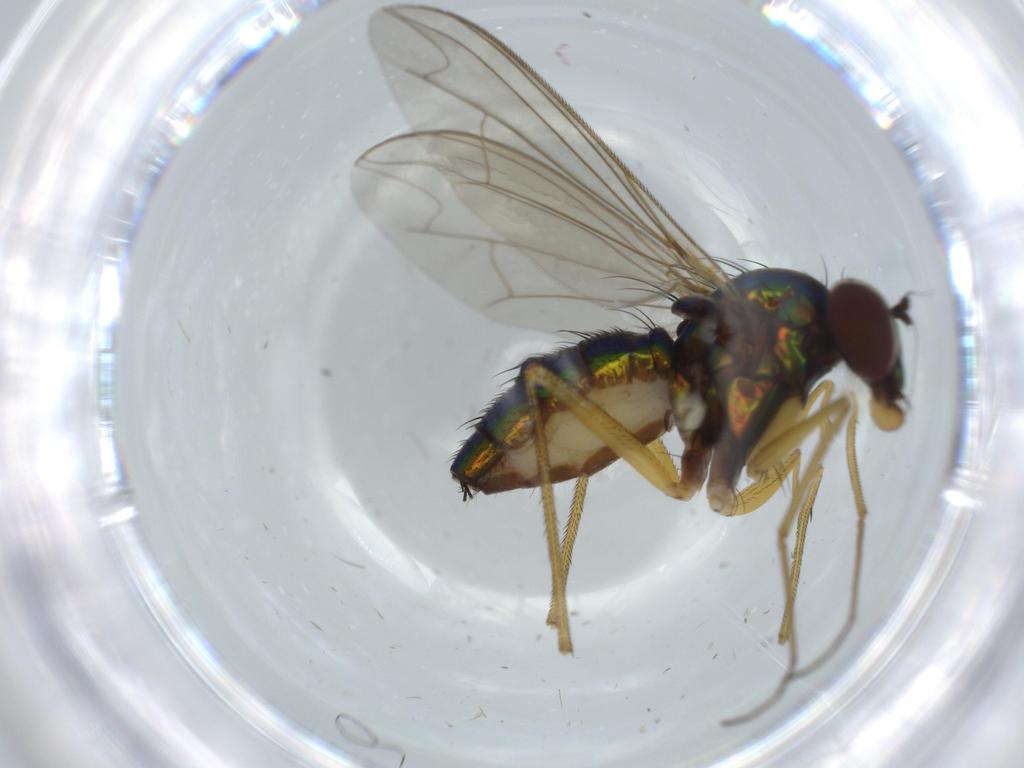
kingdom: Animalia
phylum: Arthropoda
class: Insecta
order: Diptera
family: Dolichopodidae
